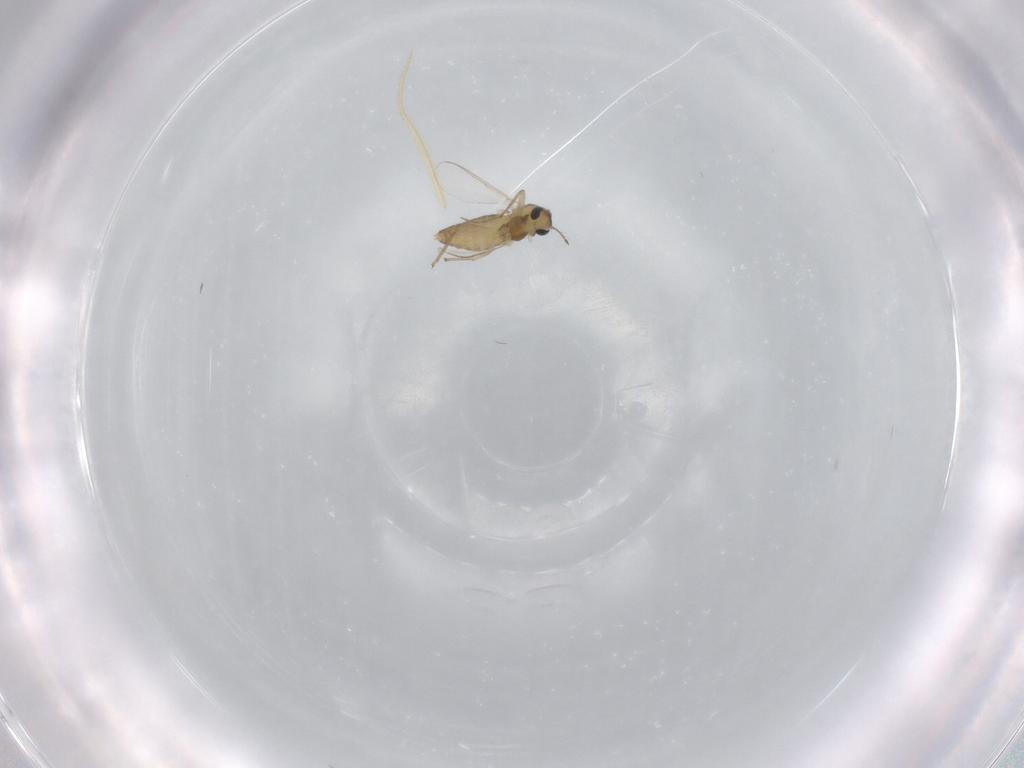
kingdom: Animalia
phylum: Arthropoda
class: Insecta
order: Diptera
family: Chironomidae
